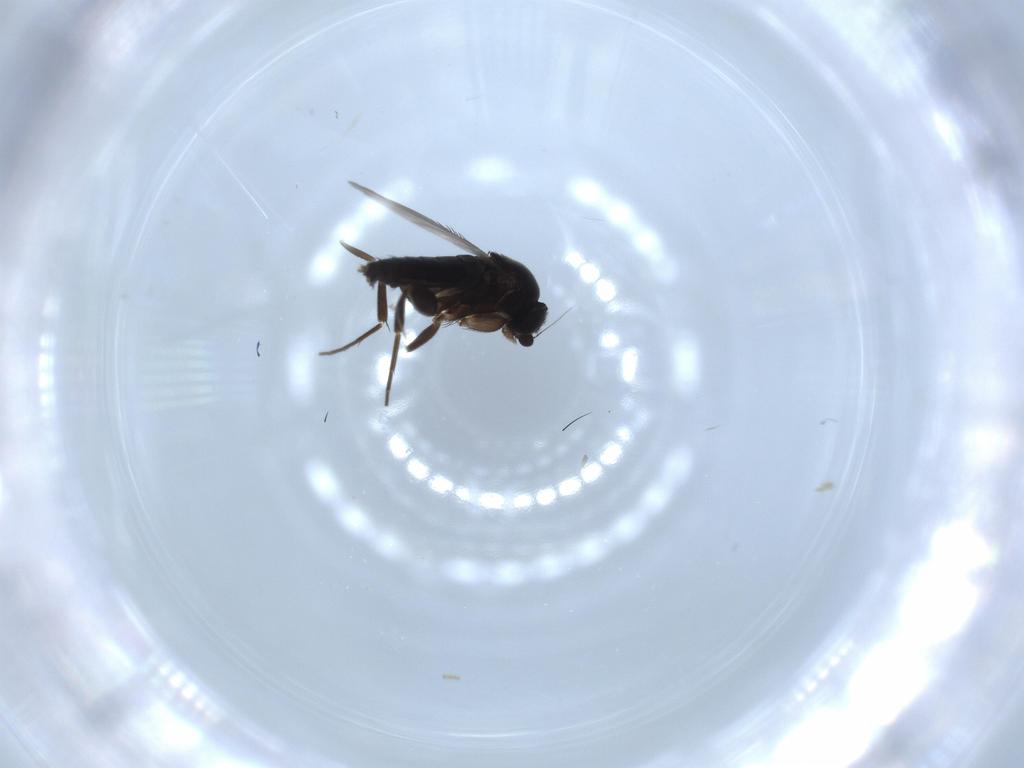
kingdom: Animalia
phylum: Arthropoda
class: Insecta
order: Diptera
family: Phoridae
